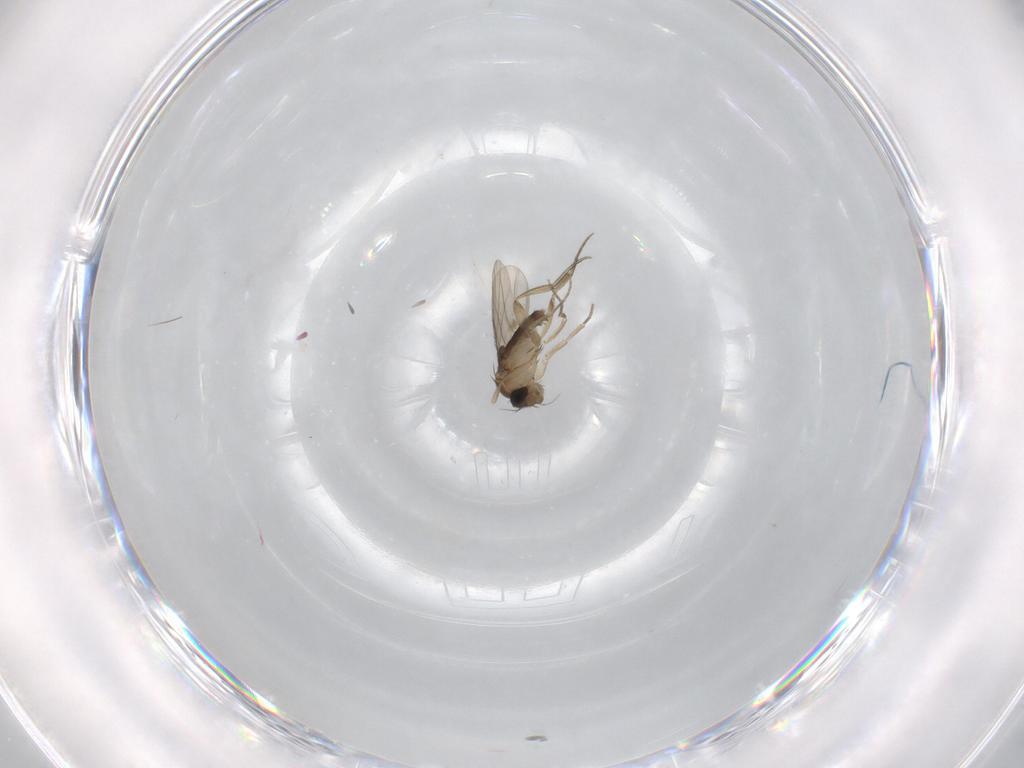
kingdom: Animalia
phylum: Arthropoda
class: Insecta
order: Diptera
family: Phoridae
